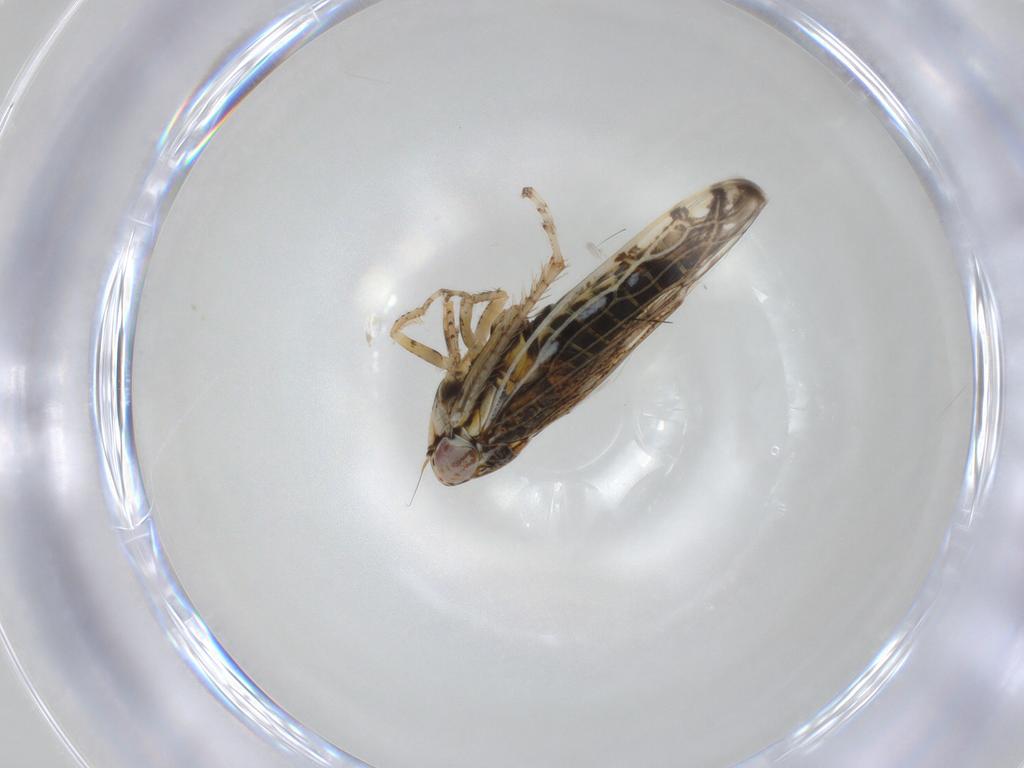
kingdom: Animalia
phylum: Arthropoda
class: Insecta
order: Hemiptera
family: Cicadellidae
